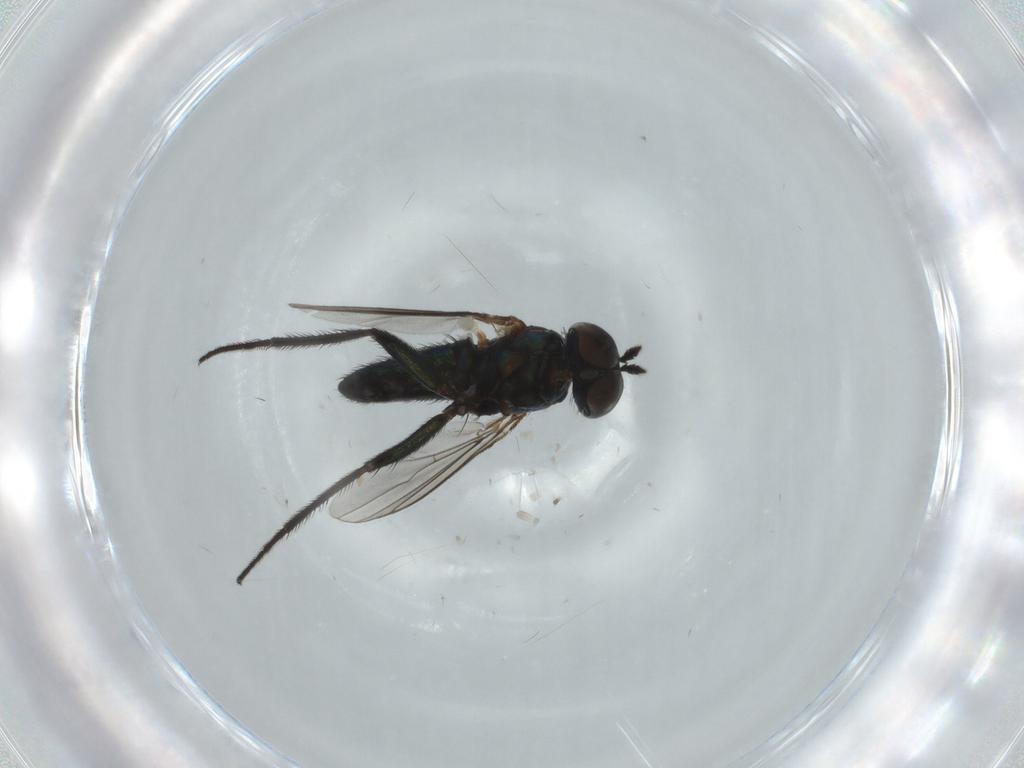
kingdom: Animalia
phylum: Arthropoda
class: Insecta
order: Diptera
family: Dolichopodidae
